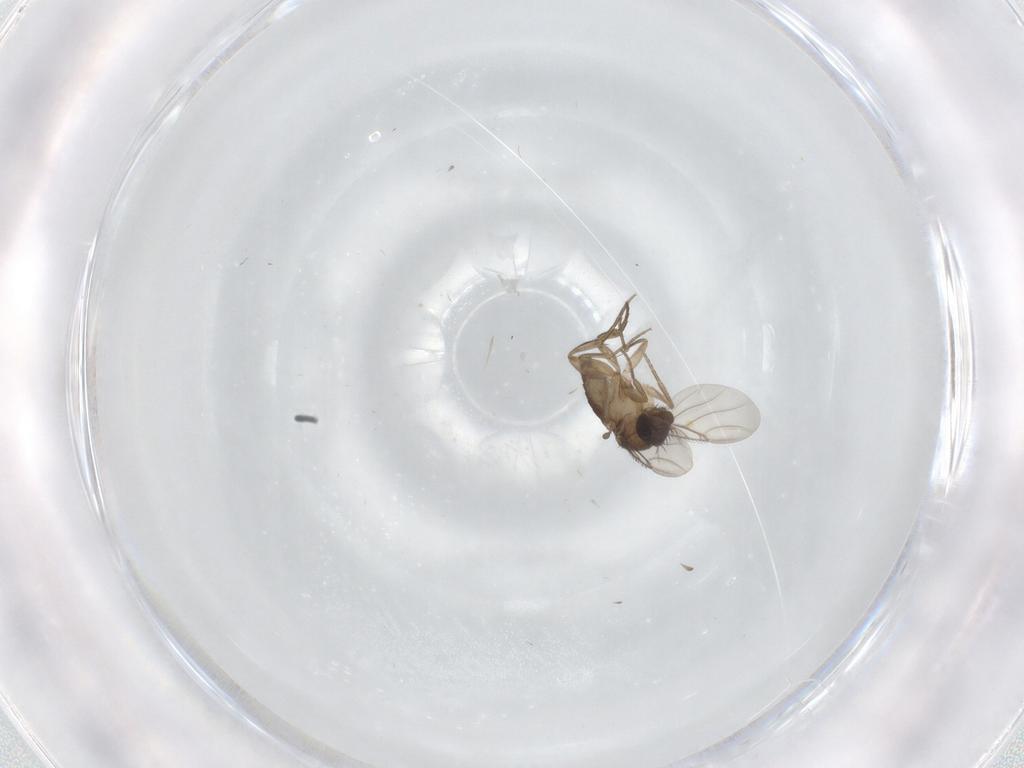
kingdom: Animalia
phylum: Arthropoda
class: Insecta
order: Diptera
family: Phoridae
